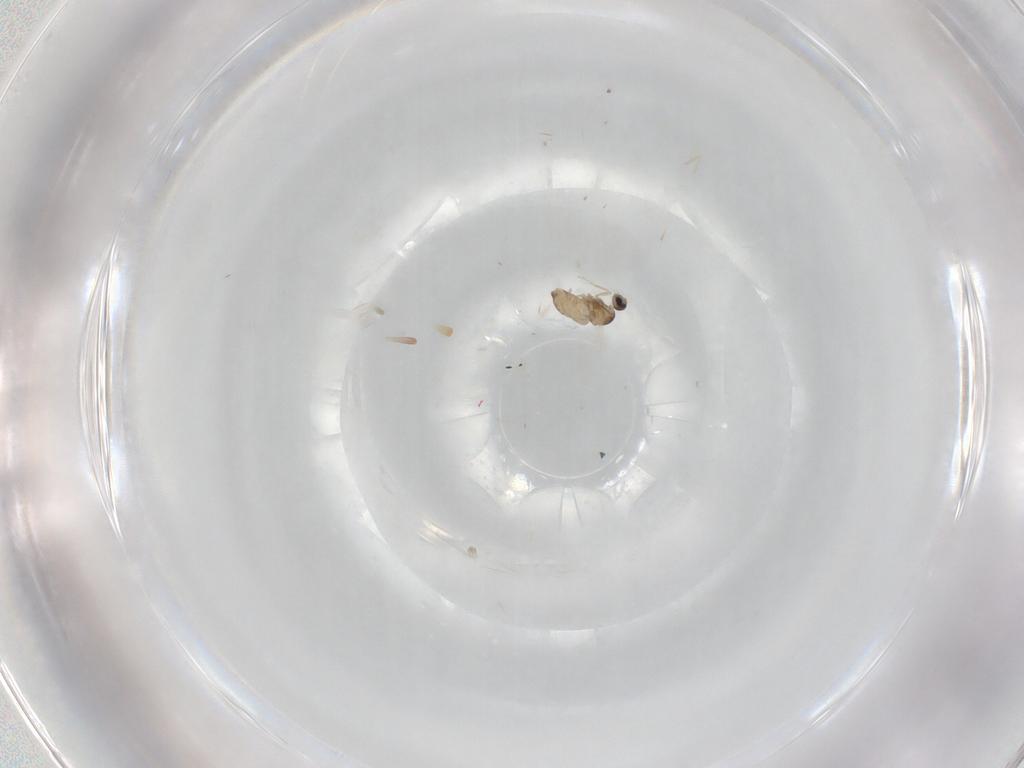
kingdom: Animalia
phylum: Arthropoda
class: Insecta
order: Diptera
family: Cecidomyiidae
